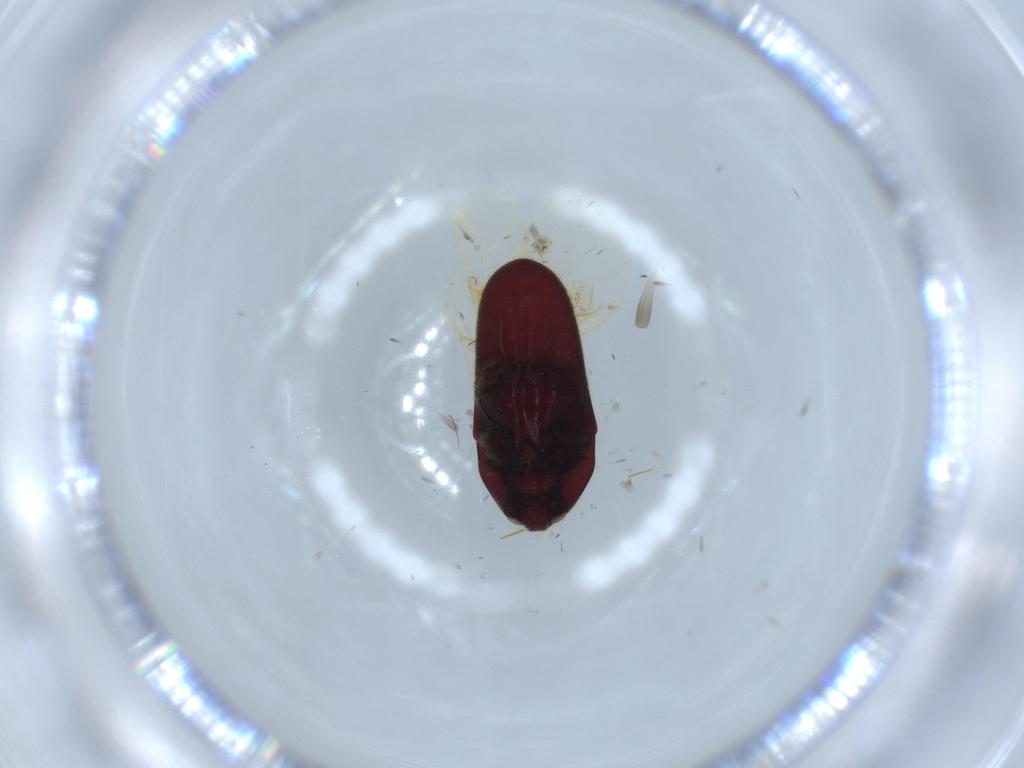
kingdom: Animalia
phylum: Arthropoda
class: Insecta
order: Coleoptera
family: Throscidae
